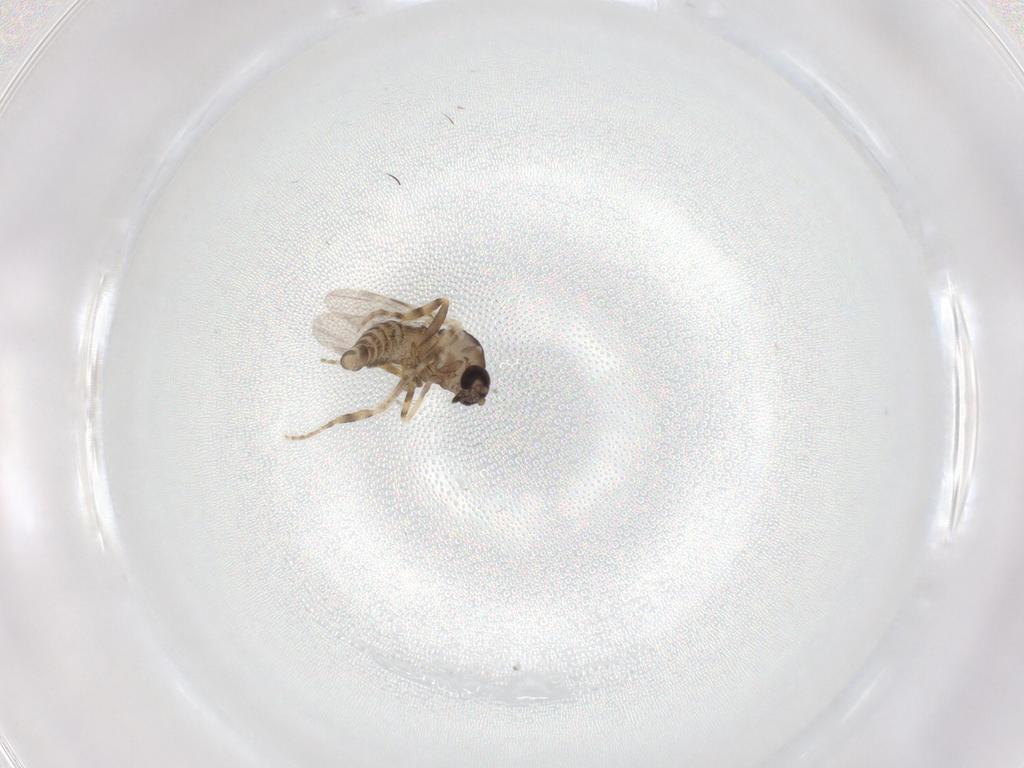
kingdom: Animalia
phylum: Arthropoda
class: Insecta
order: Diptera
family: Ceratopogonidae
